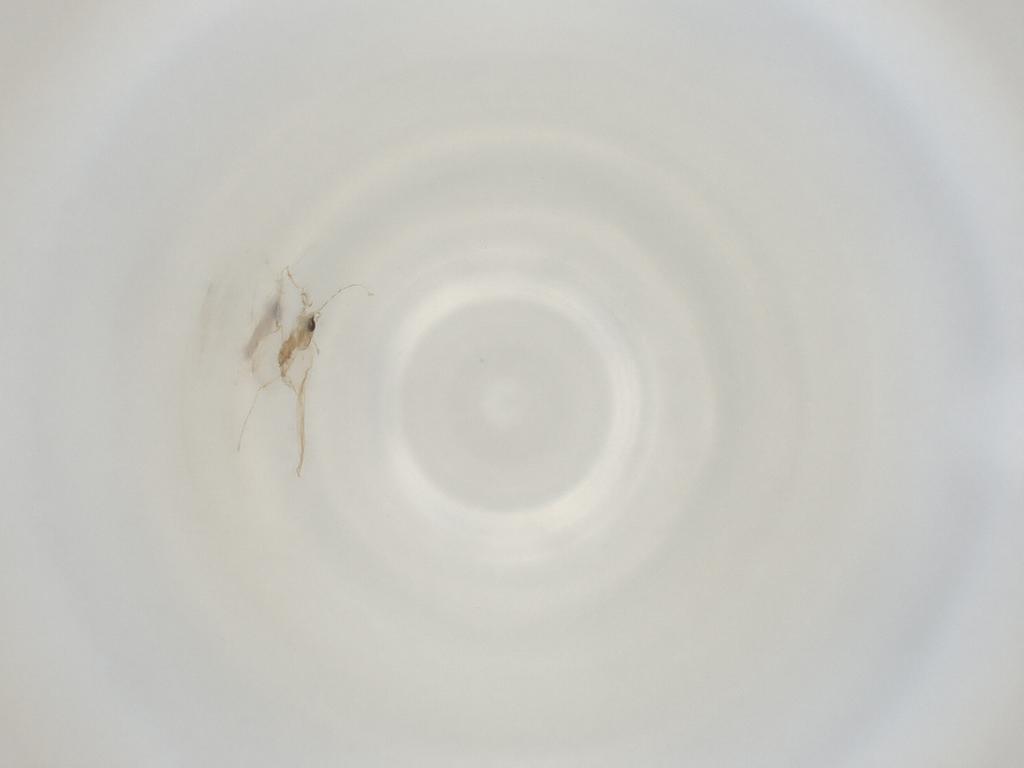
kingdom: Animalia
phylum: Arthropoda
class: Insecta
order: Diptera
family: Cecidomyiidae
